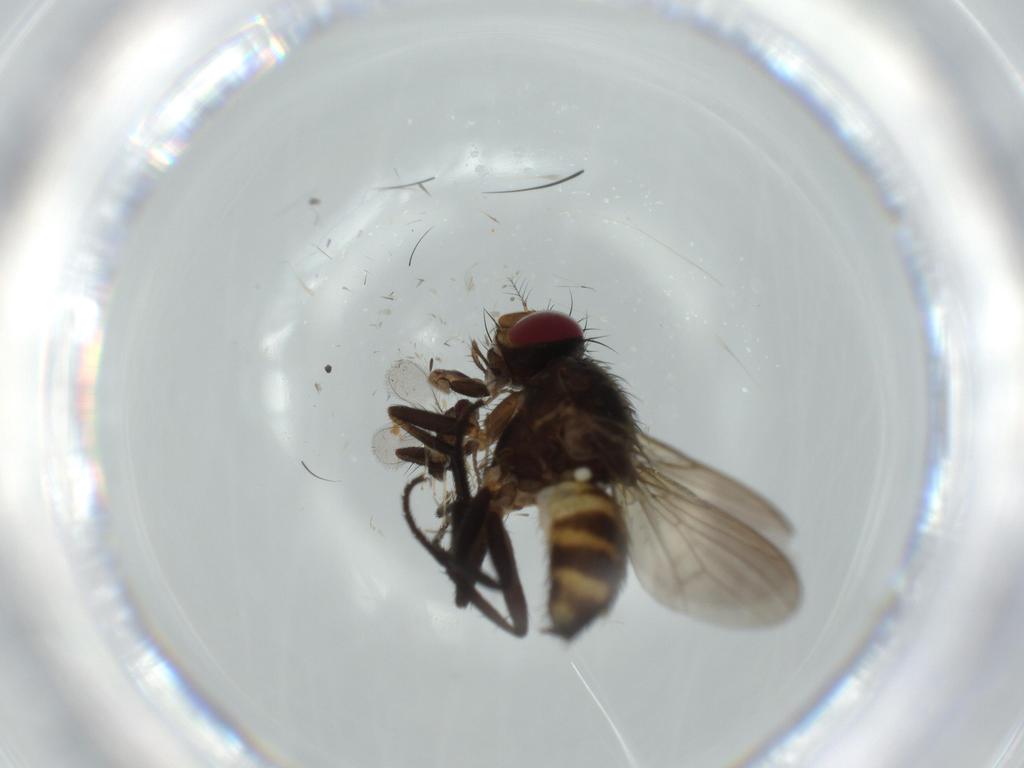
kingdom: Animalia
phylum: Arthropoda
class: Insecta
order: Diptera
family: Anthomyiidae
